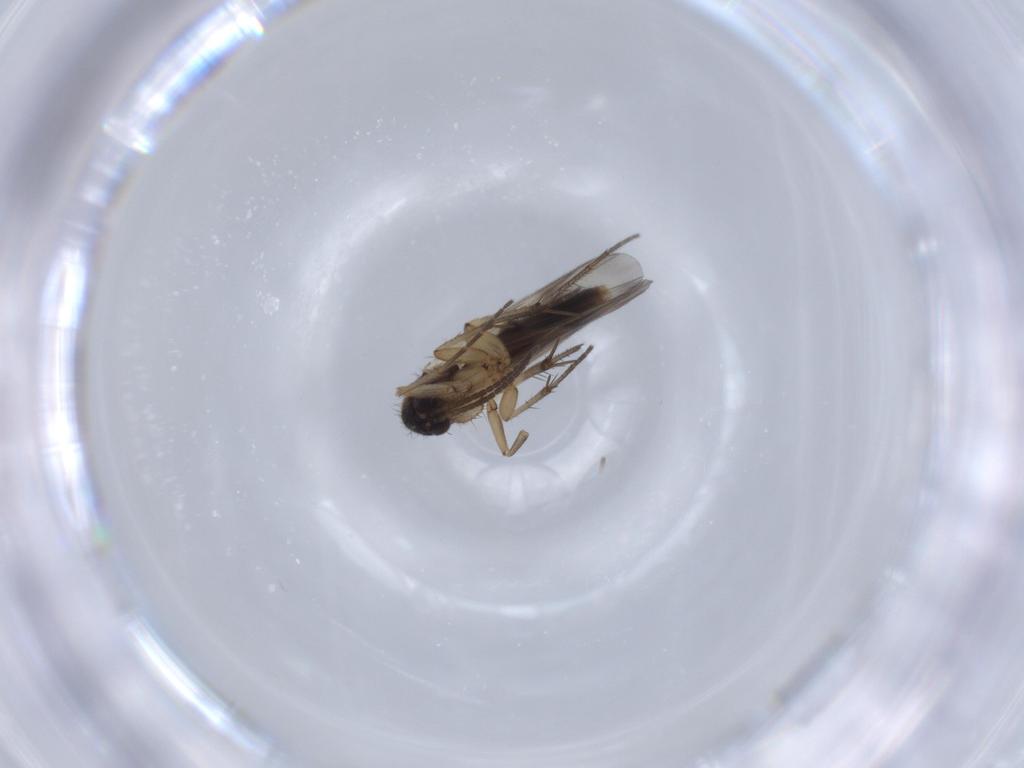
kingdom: Animalia
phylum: Arthropoda
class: Insecta
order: Diptera
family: Mycetophilidae
